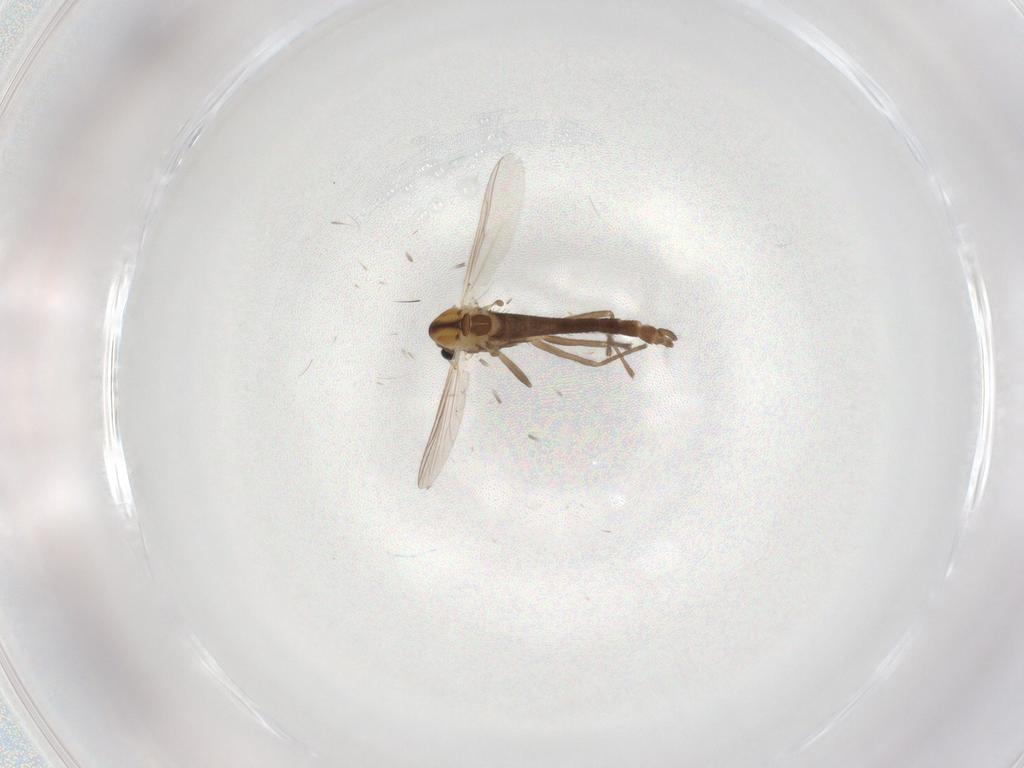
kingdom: Animalia
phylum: Arthropoda
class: Insecta
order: Diptera
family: Chironomidae
